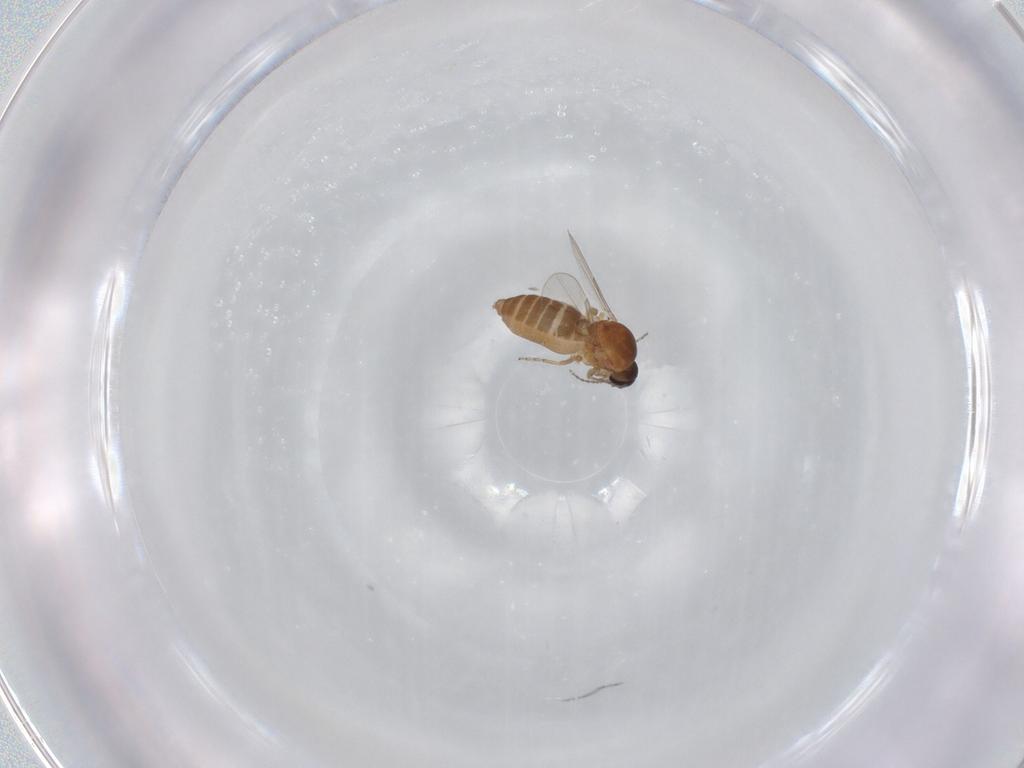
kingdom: Animalia
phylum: Arthropoda
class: Insecta
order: Diptera
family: Ceratopogonidae
